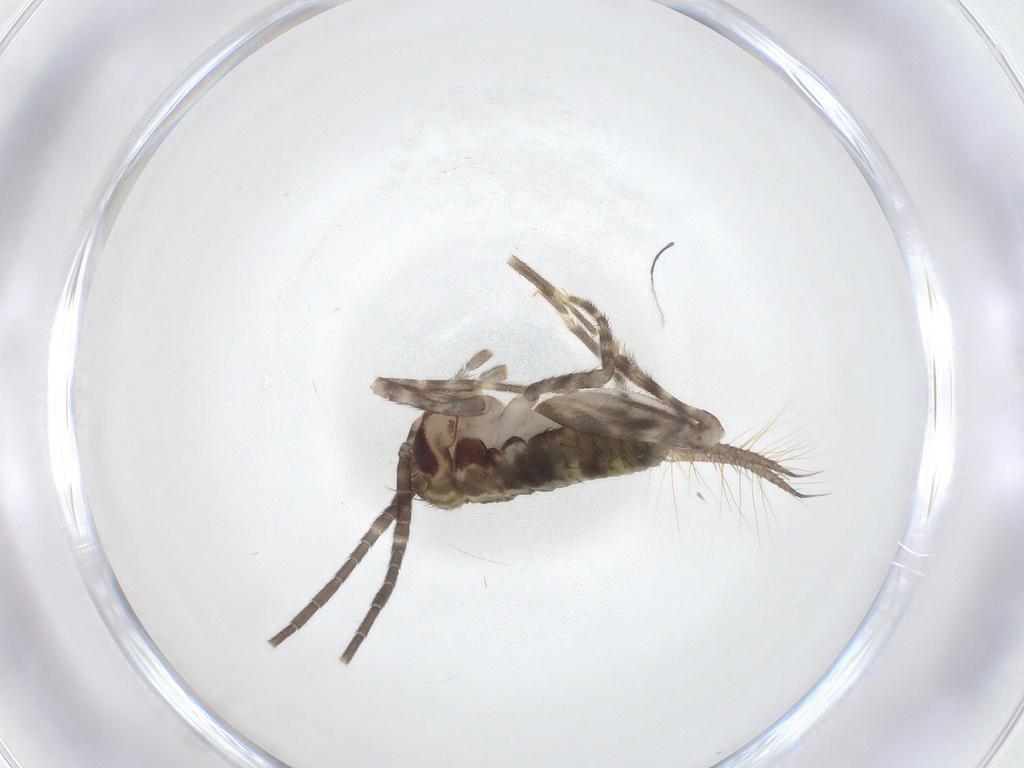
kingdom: Animalia
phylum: Arthropoda
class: Insecta
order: Orthoptera
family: Gryllidae
